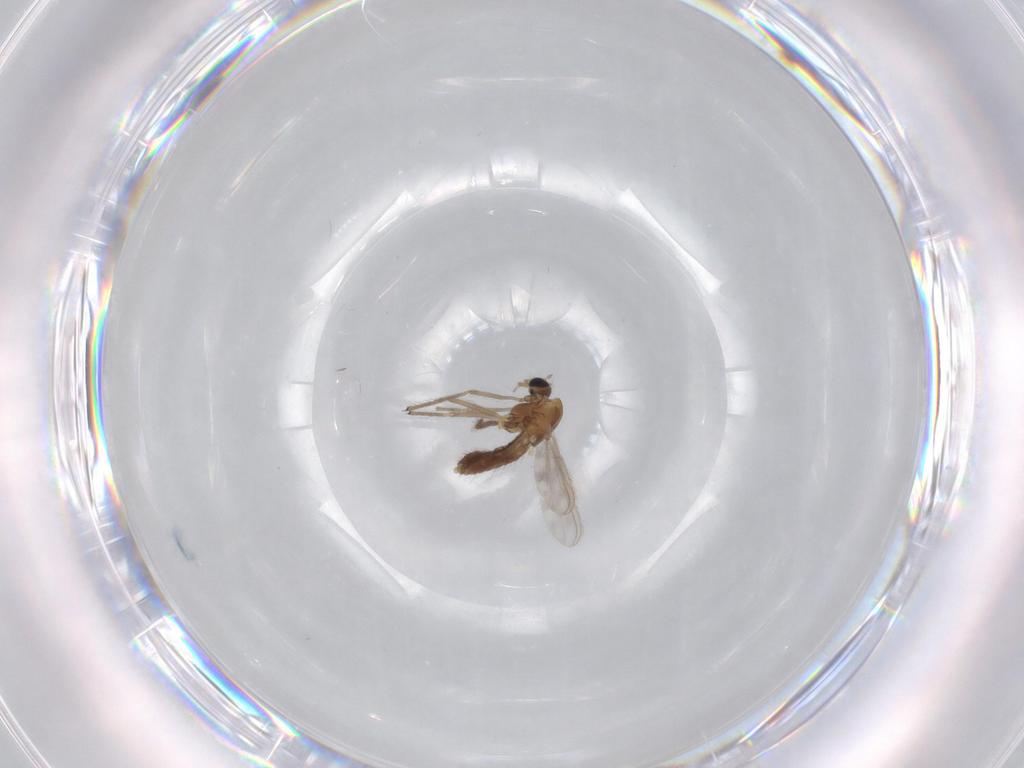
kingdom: Animalia
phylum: Arthropoda
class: Insecta
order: Diptera
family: Chironomidae
